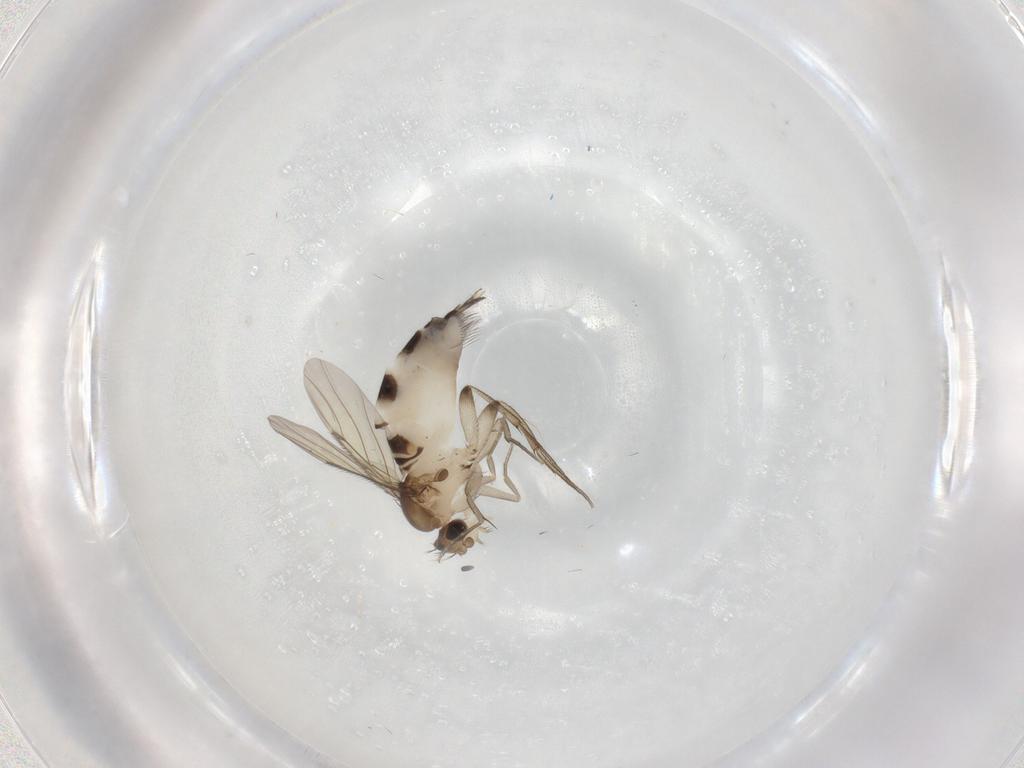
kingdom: Animalia
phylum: Arthropoda
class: Insecta
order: Diptera
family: Phoridae
